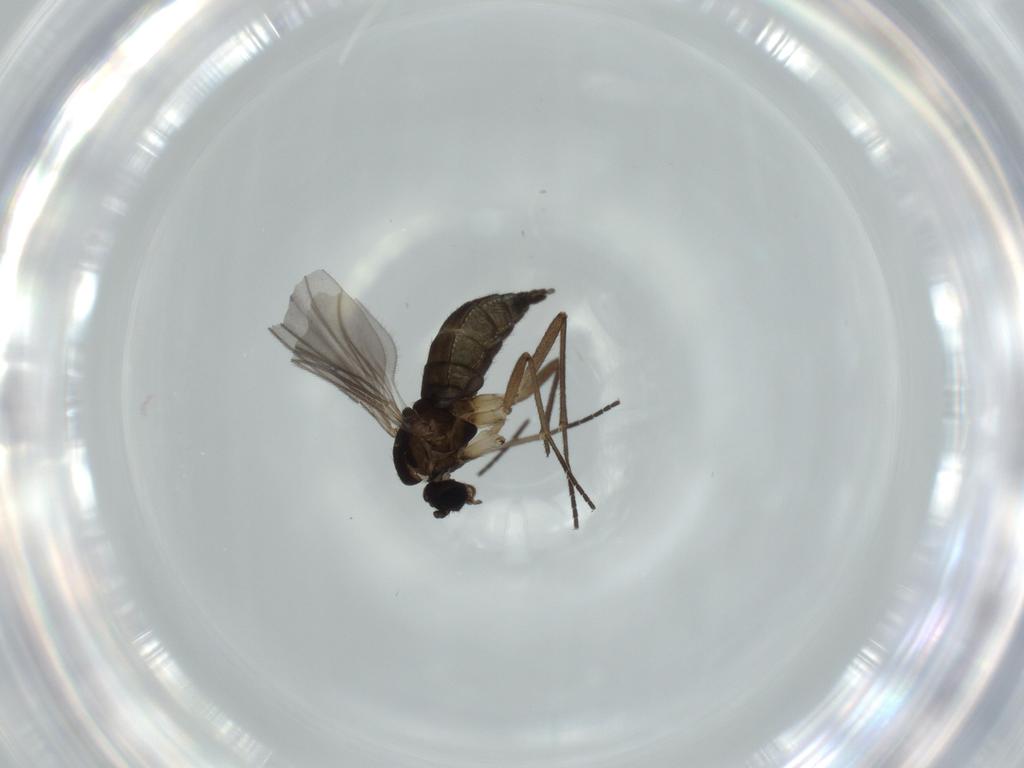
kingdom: Animalia
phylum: Arthropoda
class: Insecta
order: Diptera
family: Sciaridae
